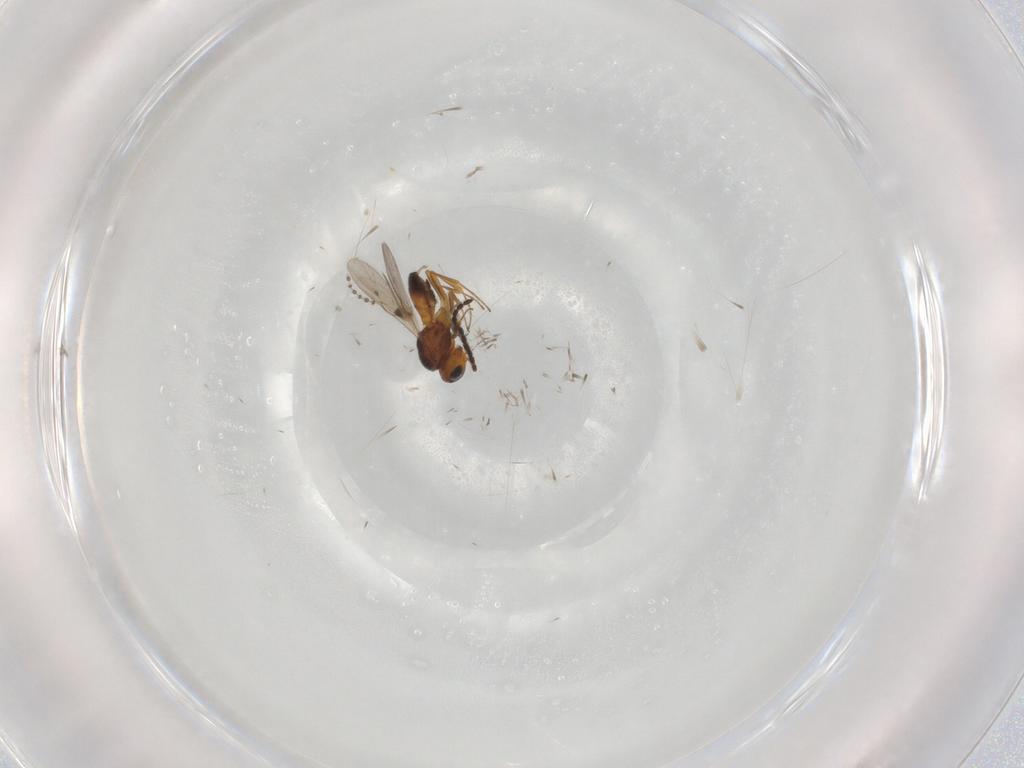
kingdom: Animalia
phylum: Arthropoda
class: Insecta
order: Hymenoptera
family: Scelionidae
